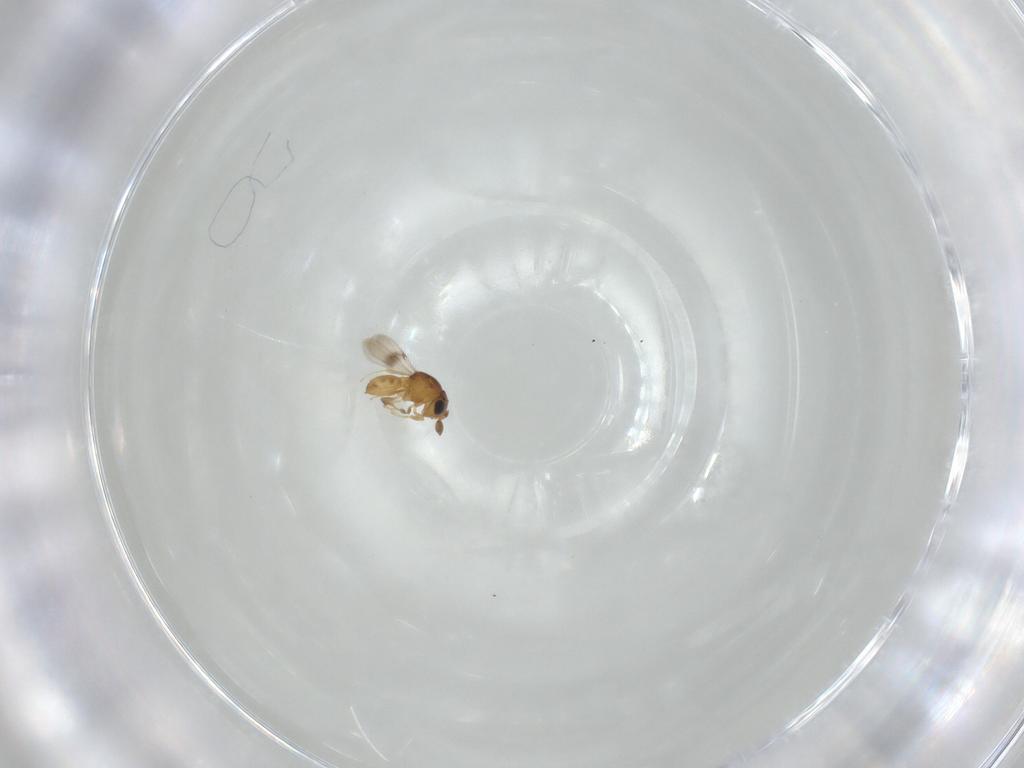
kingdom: Animalia
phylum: Arthropoda
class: Insecta
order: Hymenoptera
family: Scelionidae
